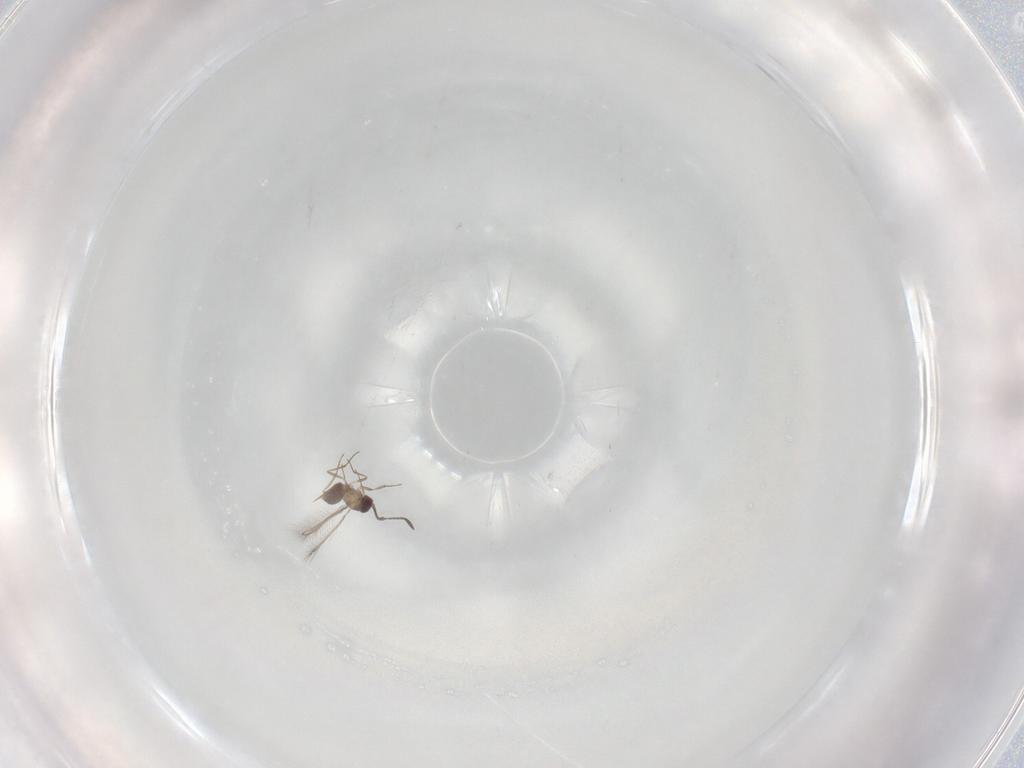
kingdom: Animalia
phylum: Arthropoda
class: Insecta
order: Hymenoptera
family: Mymaridae
